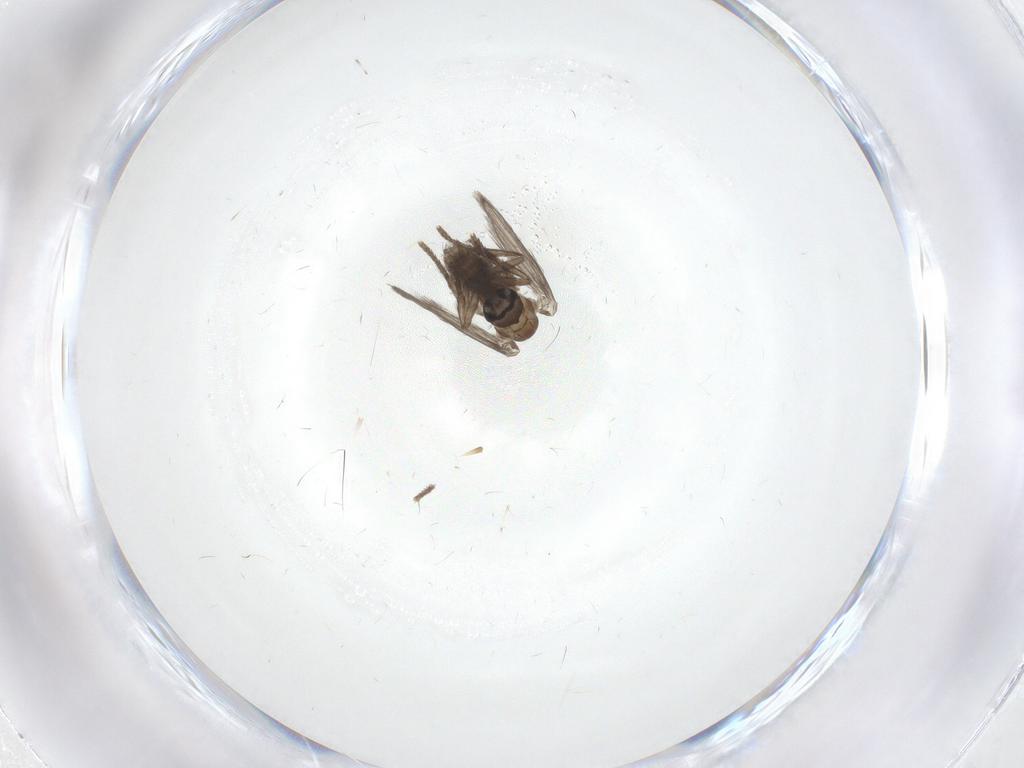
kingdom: Animalia
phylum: Arthropoda
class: Insecta
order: Diptera
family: Psychodidae
